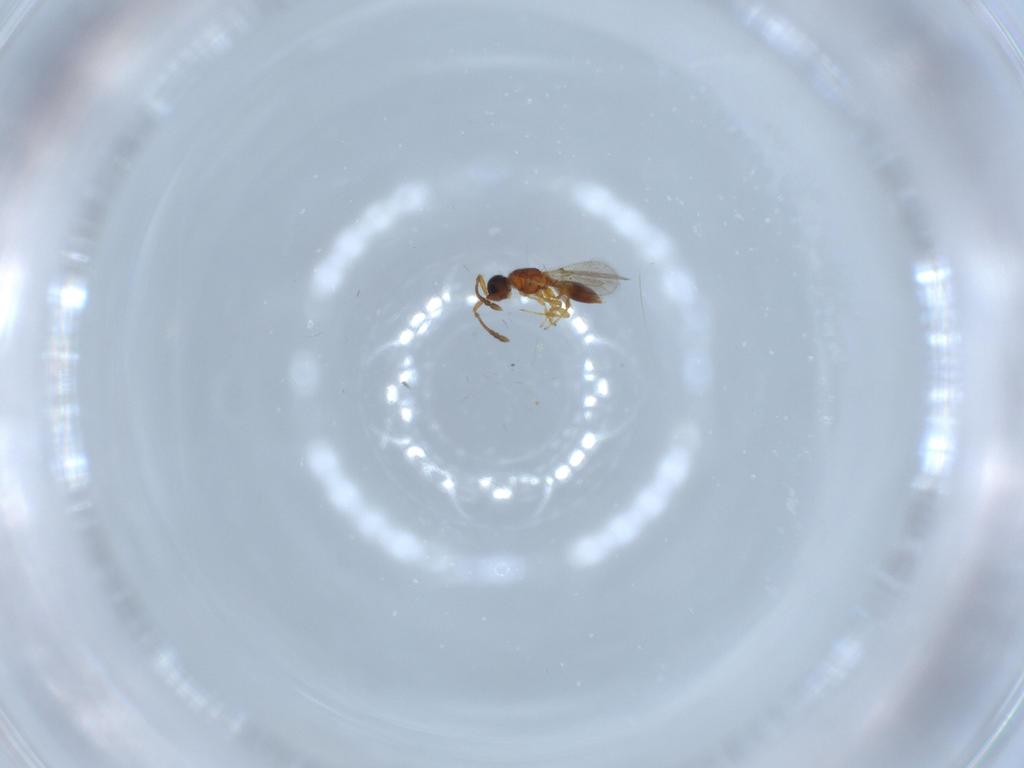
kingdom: Animalia
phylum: Arthropoda
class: Insecta
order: Hymenoptera
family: Diapriidae
